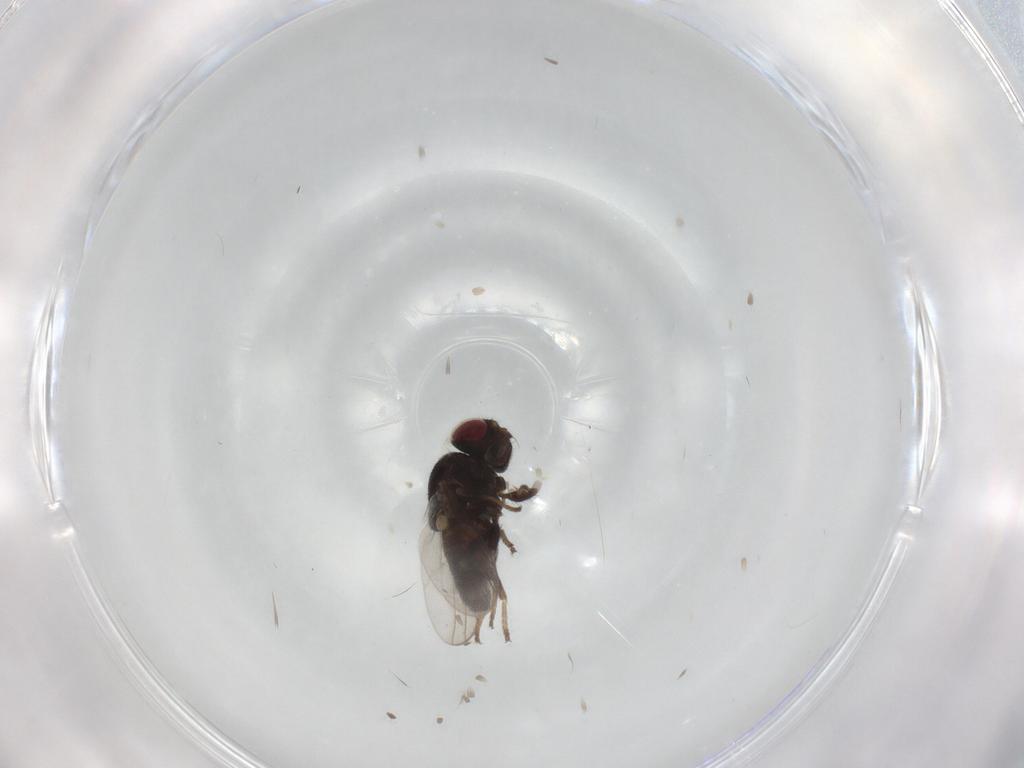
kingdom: Animalia
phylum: Arthropoda
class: Insecta
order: Diptera
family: Chloropidae
